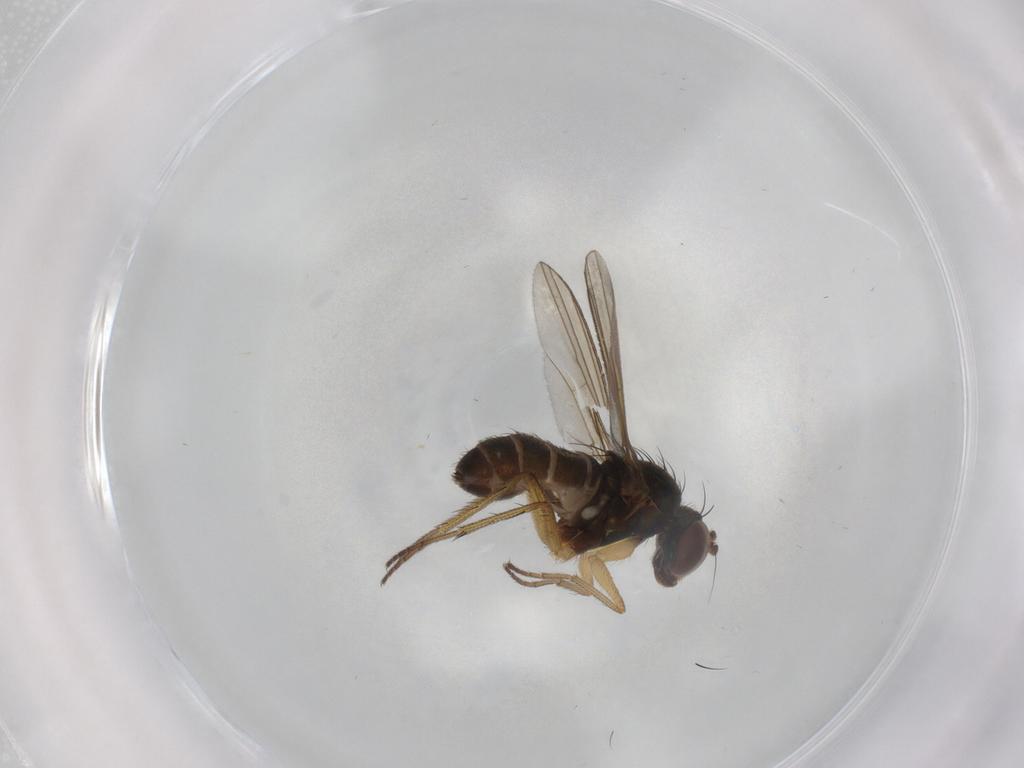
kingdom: Animalia
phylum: Arthropoda
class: Insecta
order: Diptera
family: Dolichopodidae
